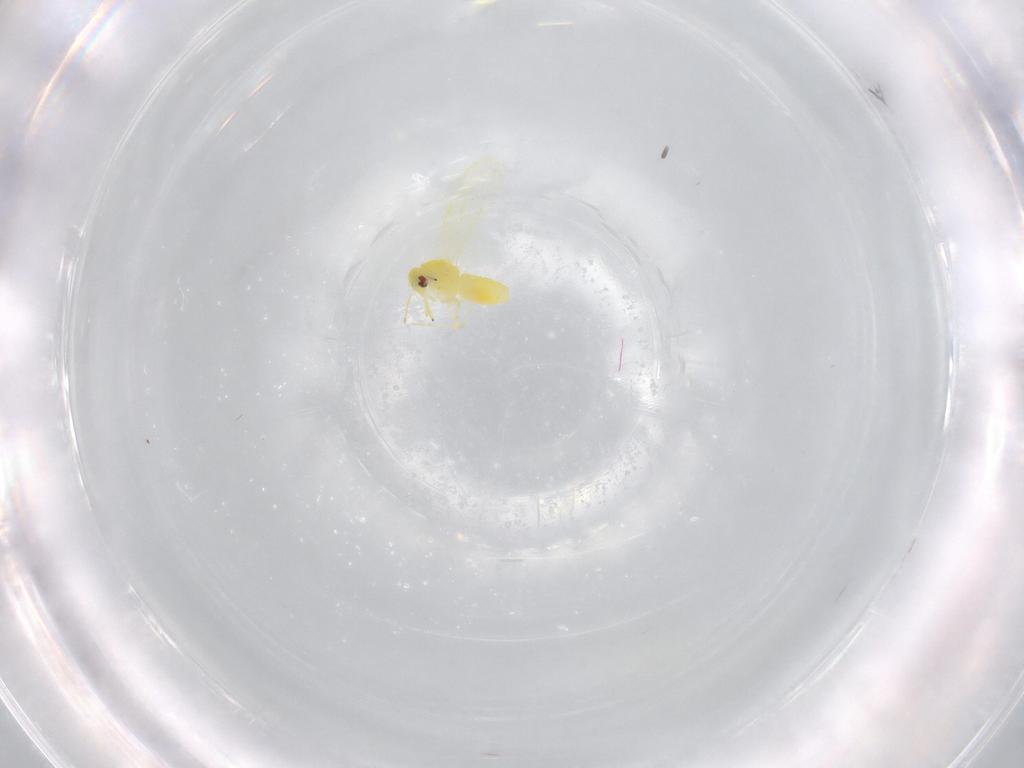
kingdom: Animalia
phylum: Arthropoda
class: Insecta
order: Hemiptera
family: Aleyrodidae
